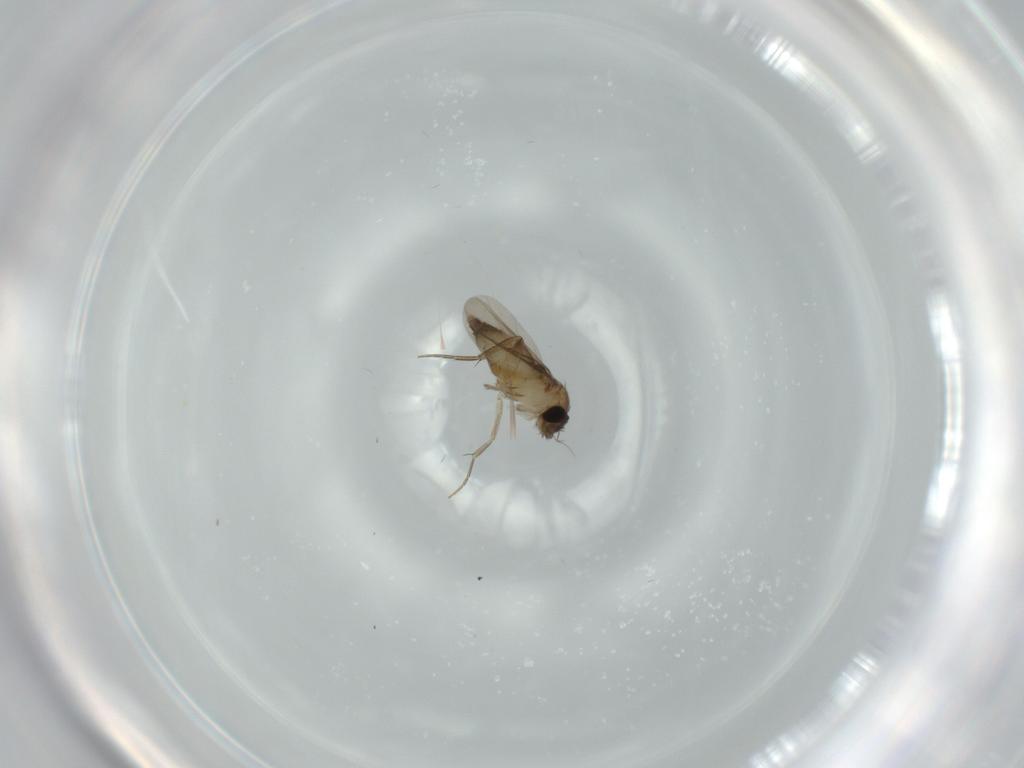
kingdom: Animalia
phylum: Arthropoda
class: Insecta
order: Diptera
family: Phoridae
